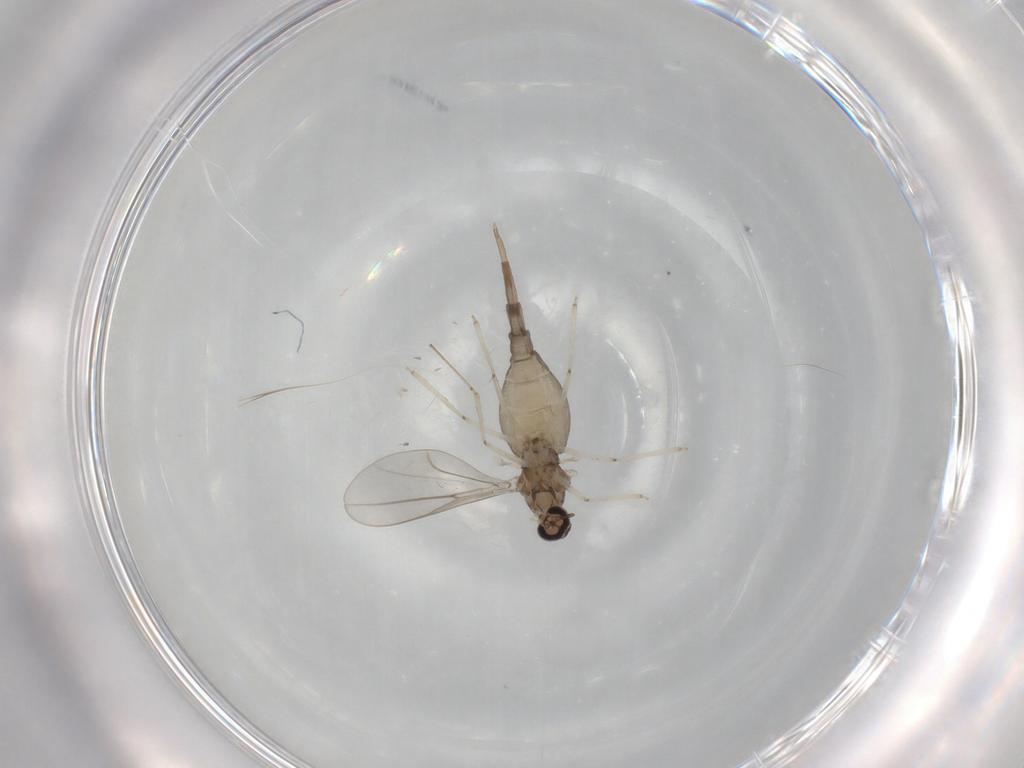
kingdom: Animalia
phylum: Arthropoda
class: Insecta
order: Diptera
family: Cecidomyiidae
